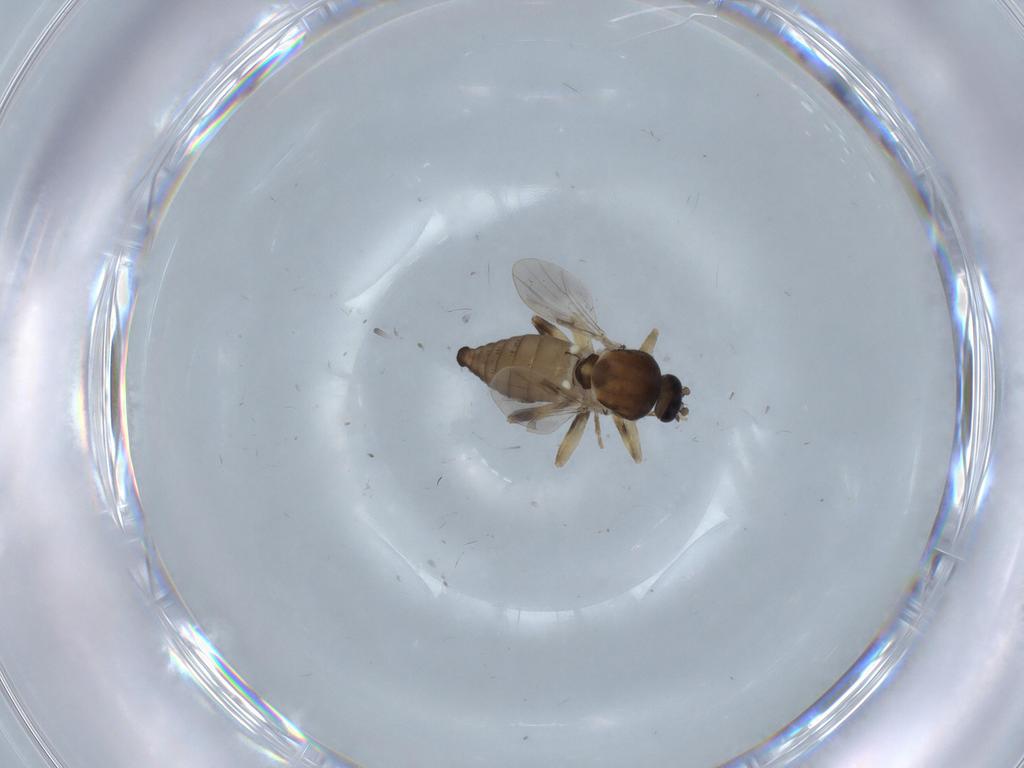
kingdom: Animalia
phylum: Arthropoda
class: Insecta
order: Diptera
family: Ceratopogonidae
